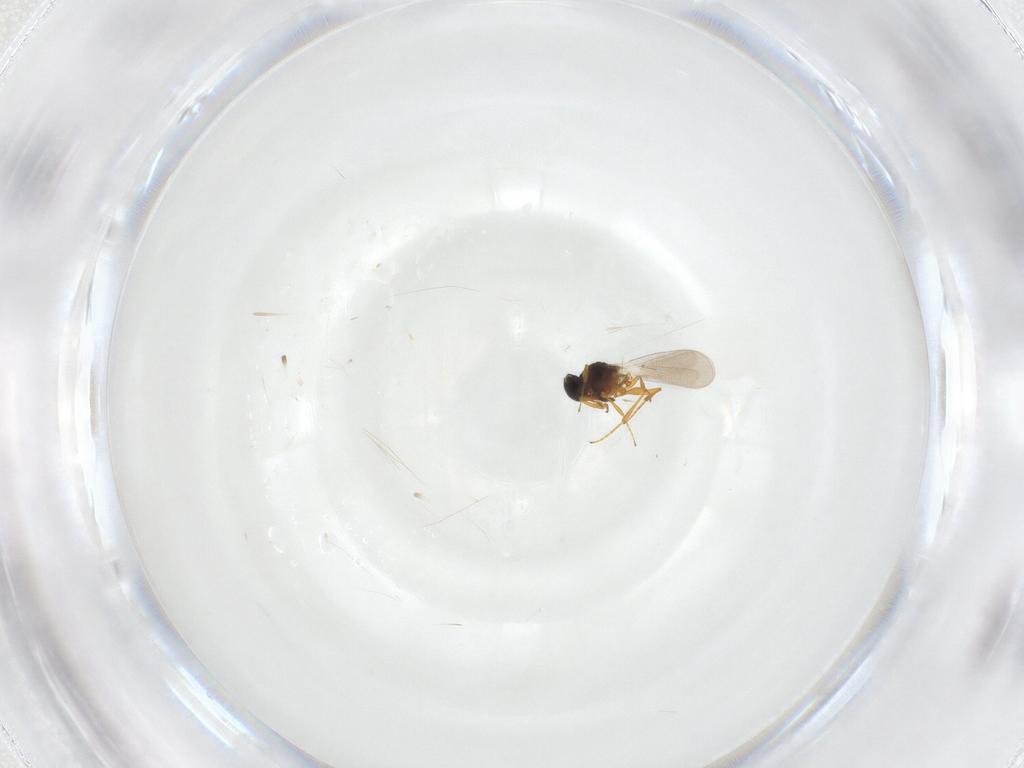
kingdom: Animalia
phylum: Arthropoda
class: Insecta
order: Hymenoptera
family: Platygastridae
